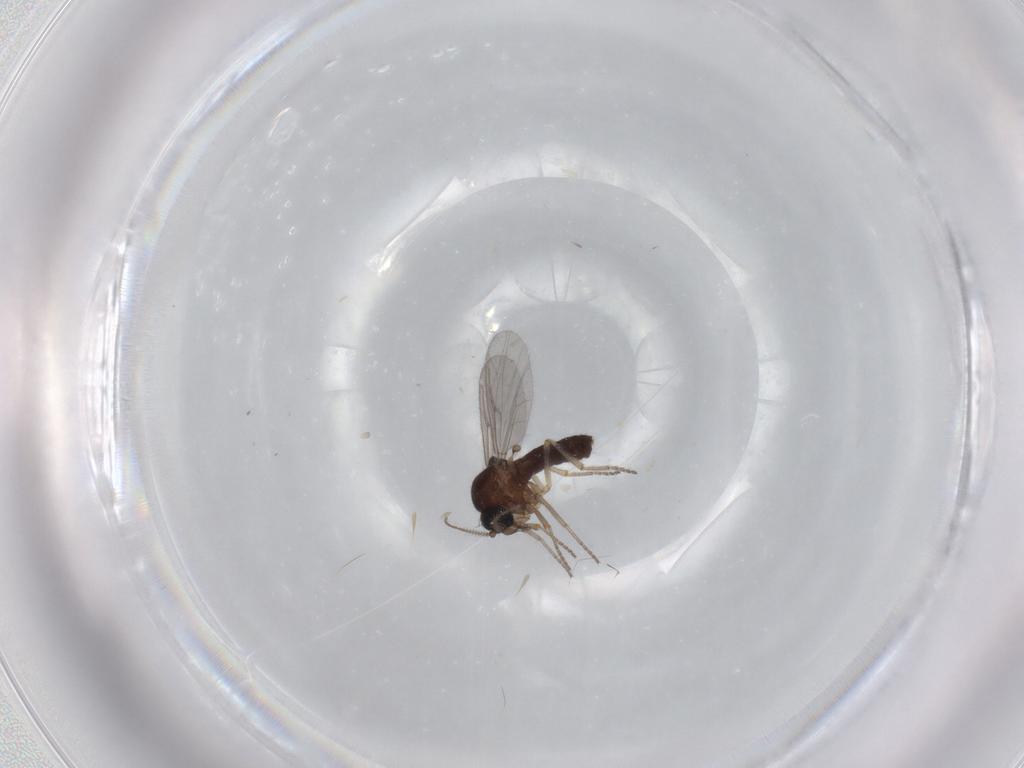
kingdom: Animalia
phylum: Arthropoda
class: Insecta
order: Diptera
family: Ceratopogonidae
